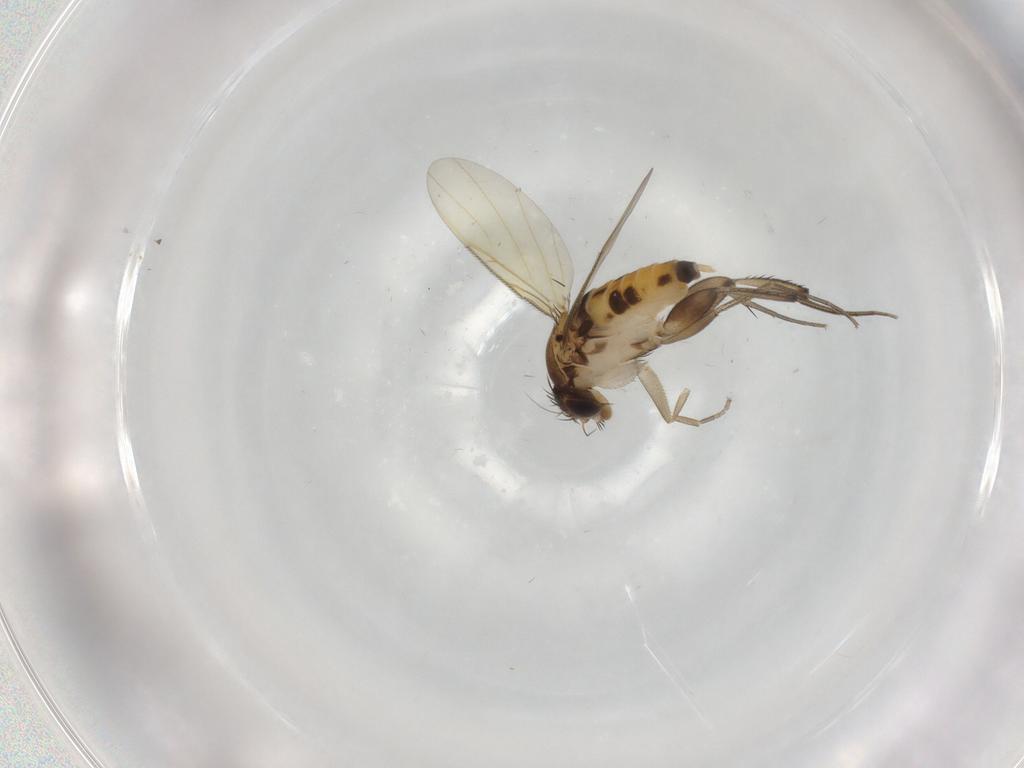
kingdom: Animalia
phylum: Arthropoda
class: Insecta
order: Diptera
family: Phoridae
